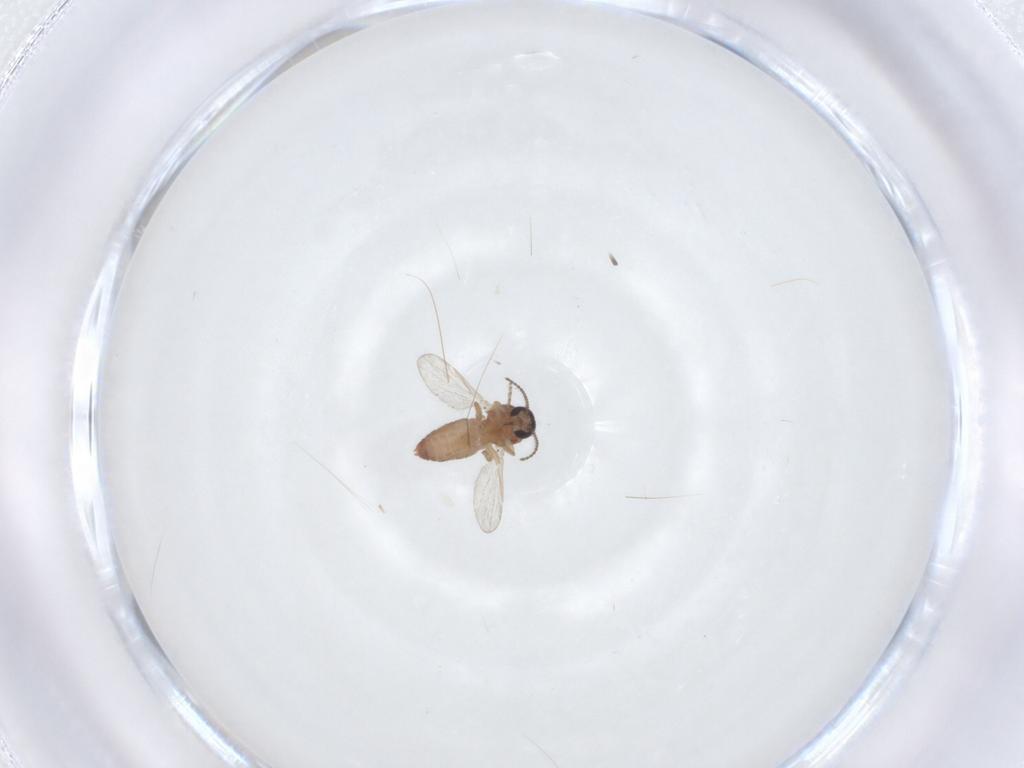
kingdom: Animalia
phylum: Arthropoda
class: Insecta
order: Diptera
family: Ceratopogonidae
